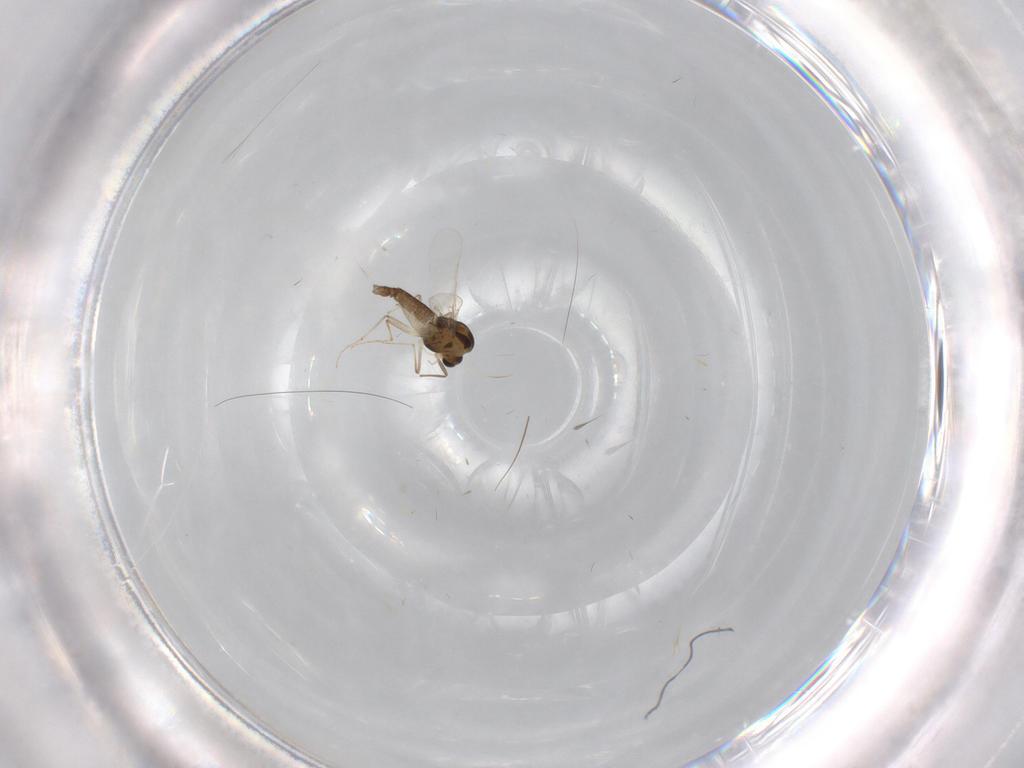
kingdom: Animalia
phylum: Arthropoda
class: Insecta
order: Diptera
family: Chironomidae
